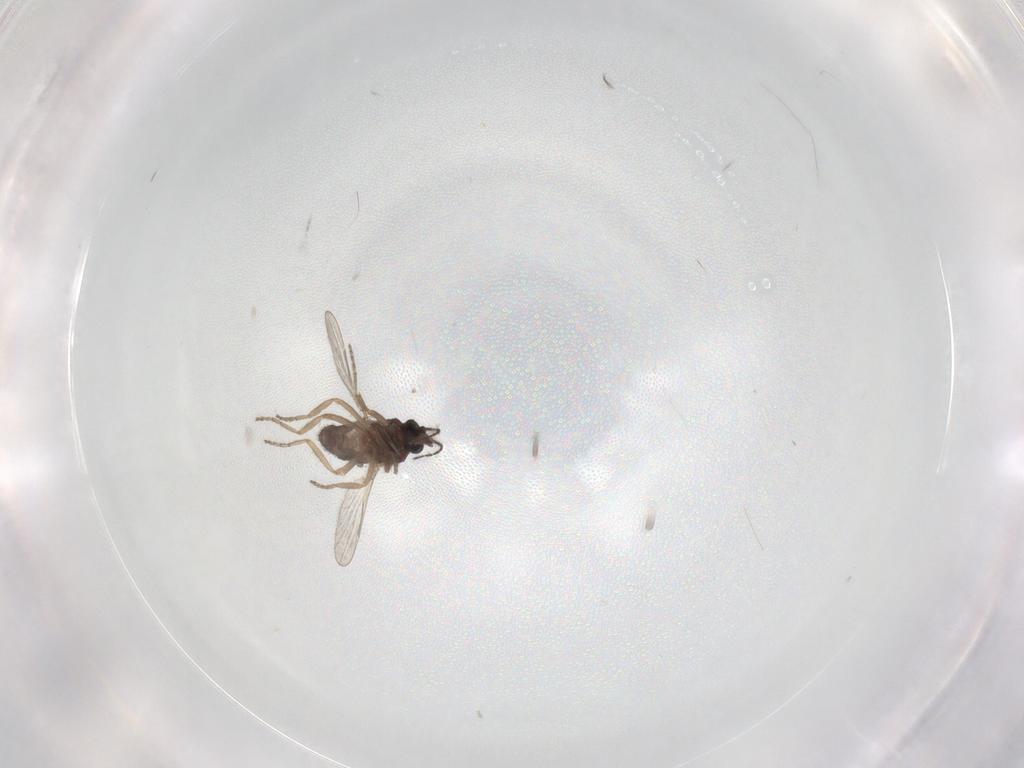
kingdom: Animalia
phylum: Arthropoda
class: Insecta
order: Diptera
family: Ceratopogonidae
